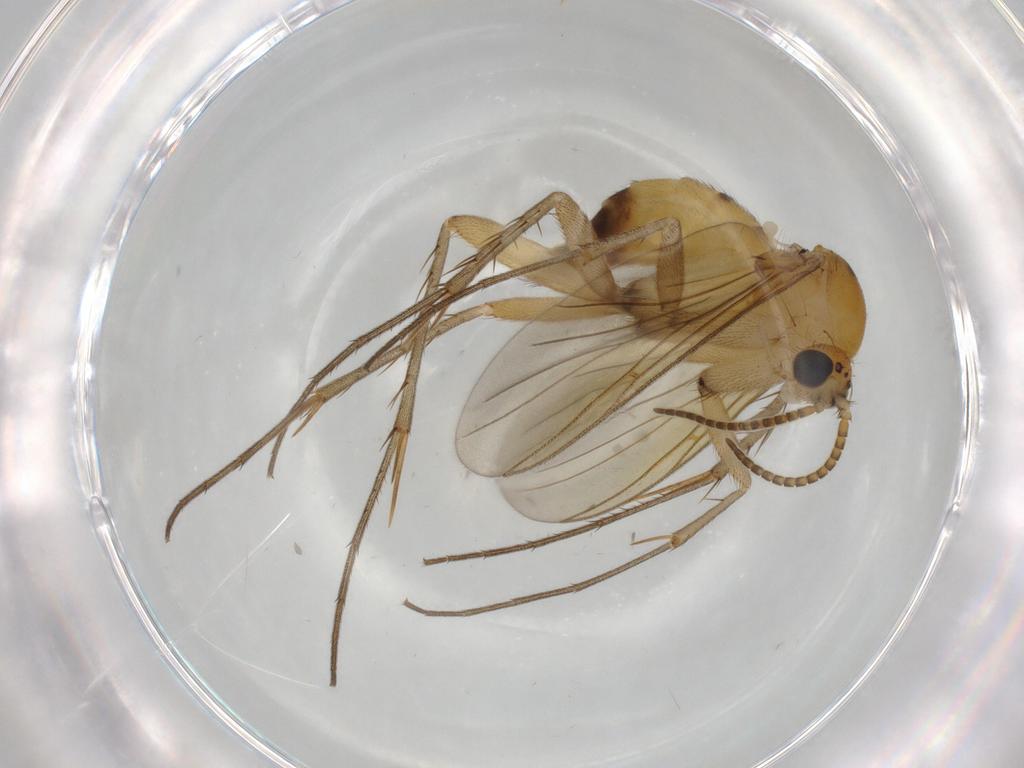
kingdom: Animalia
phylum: Arthropoda
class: Insecta
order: Diptera
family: Mycetophilidae
